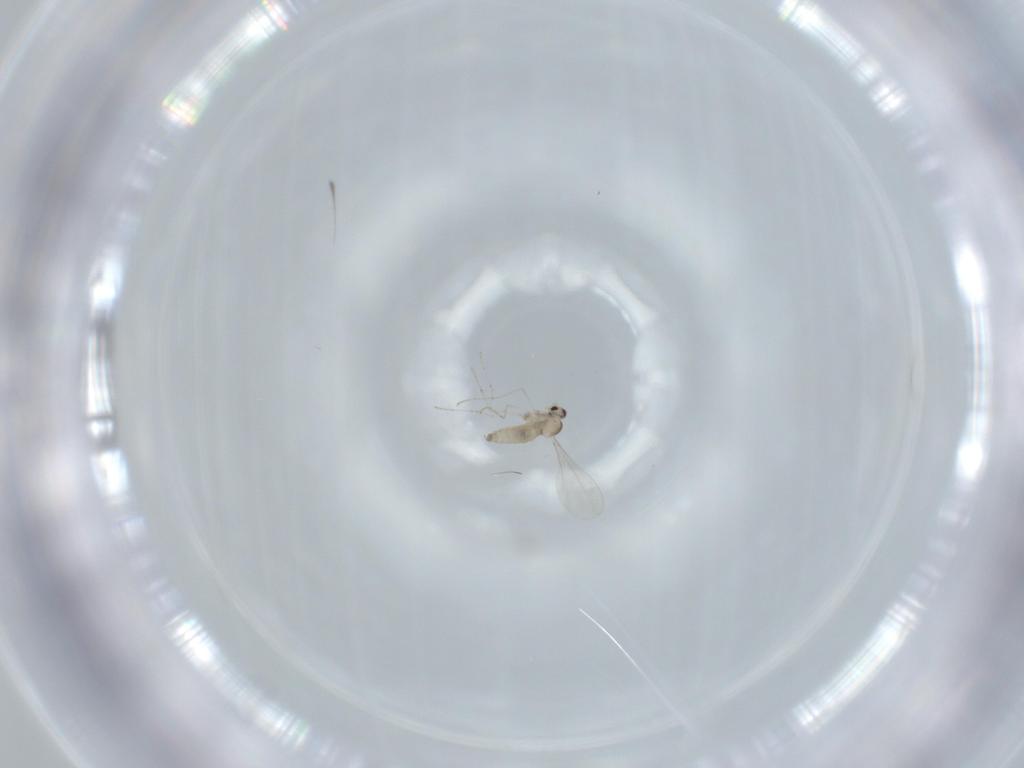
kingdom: Animalia
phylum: Arthropoda
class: Insecta
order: Diptera
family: Cecidomyiidae
